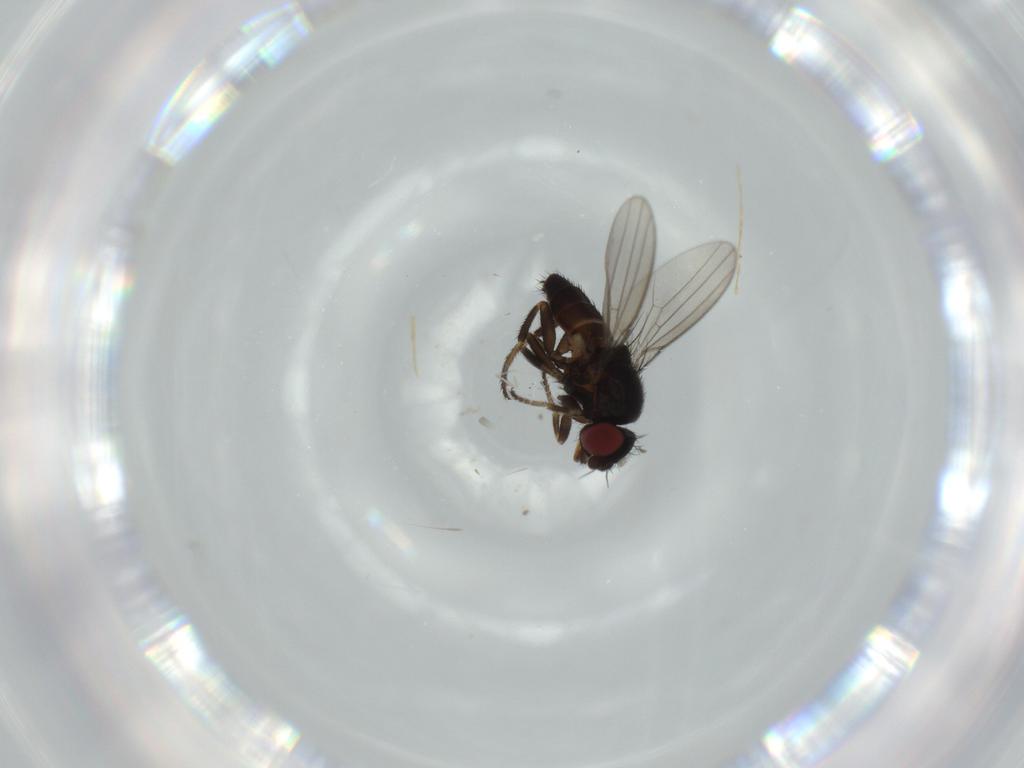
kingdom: Animalia
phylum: Arthropoda
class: Insecta
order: Diptera
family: Milichiidae
